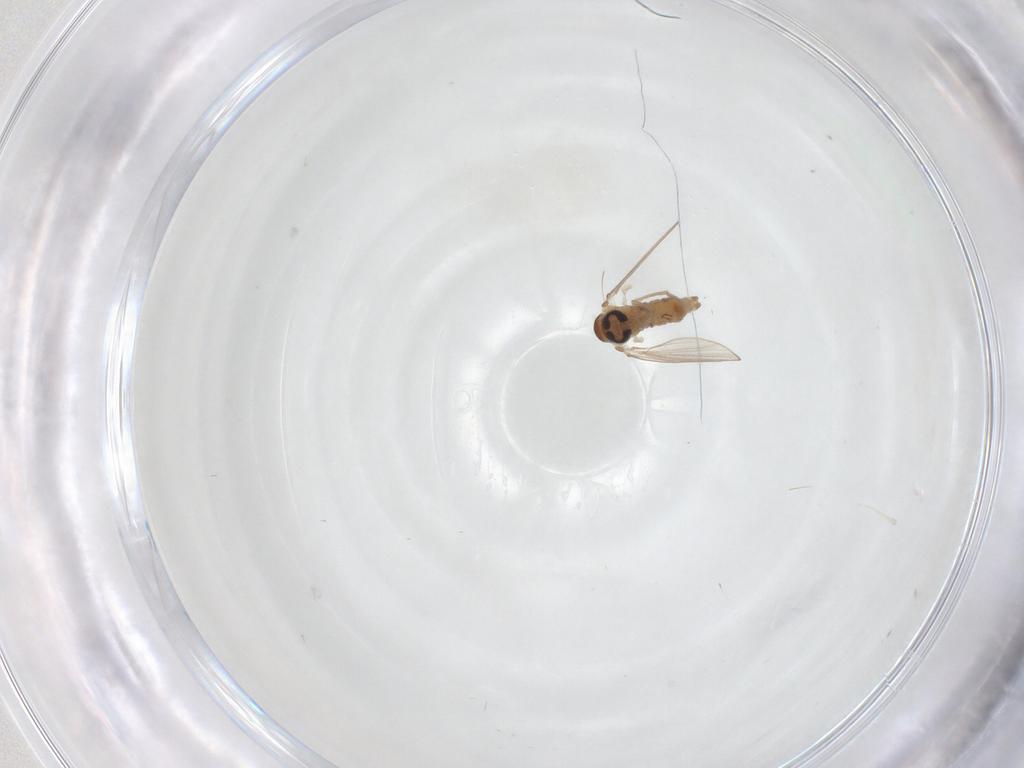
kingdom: Animalia
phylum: Arthropoda
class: Insecta
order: Diptera
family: Psychodidae
